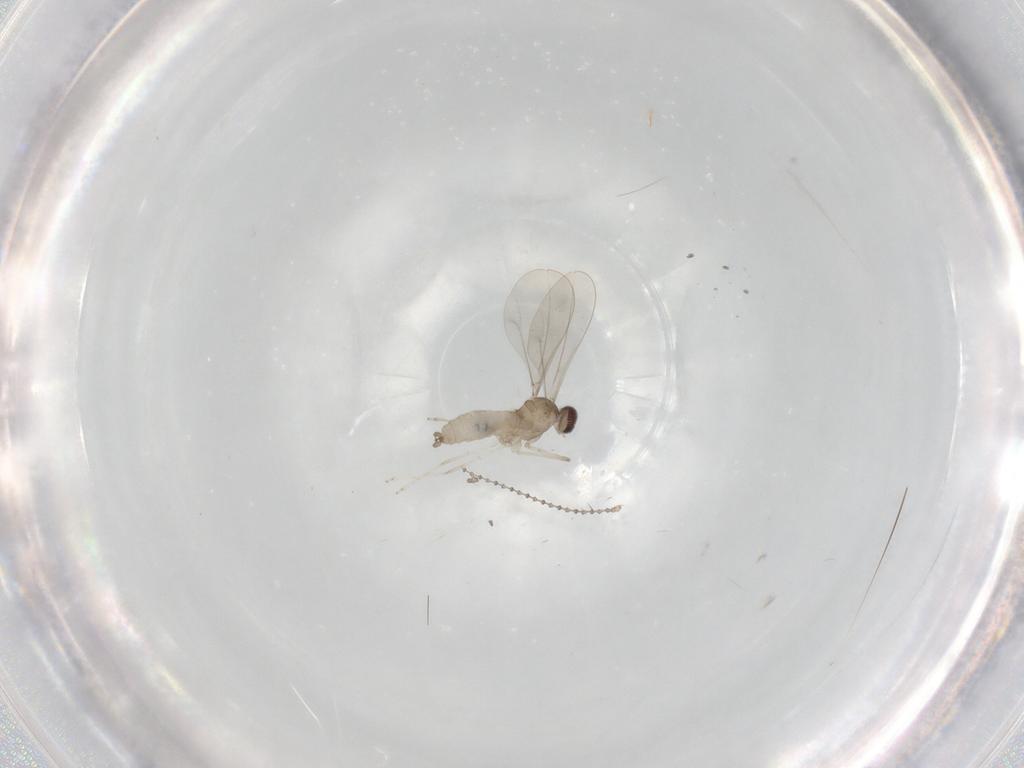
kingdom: Animalia
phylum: Arthropoda
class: Insecta
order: Diptera
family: Cecidomyiidae
